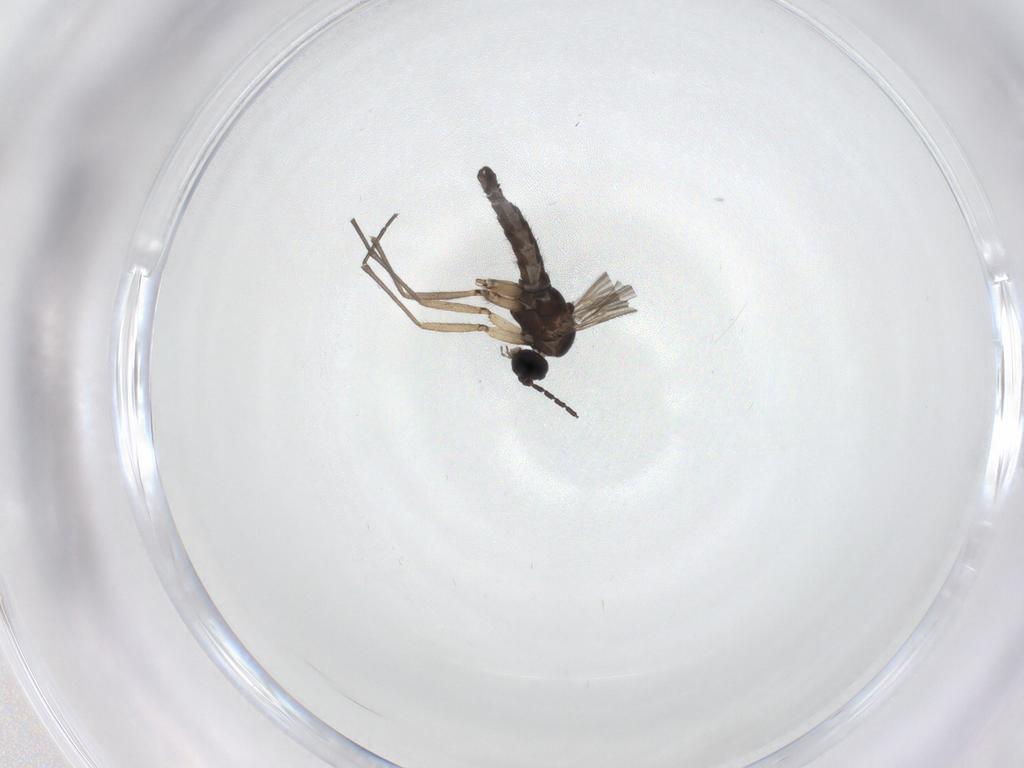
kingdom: Animalia
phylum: Arthropoda
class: Insecta
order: Diptera
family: Sciaridae
